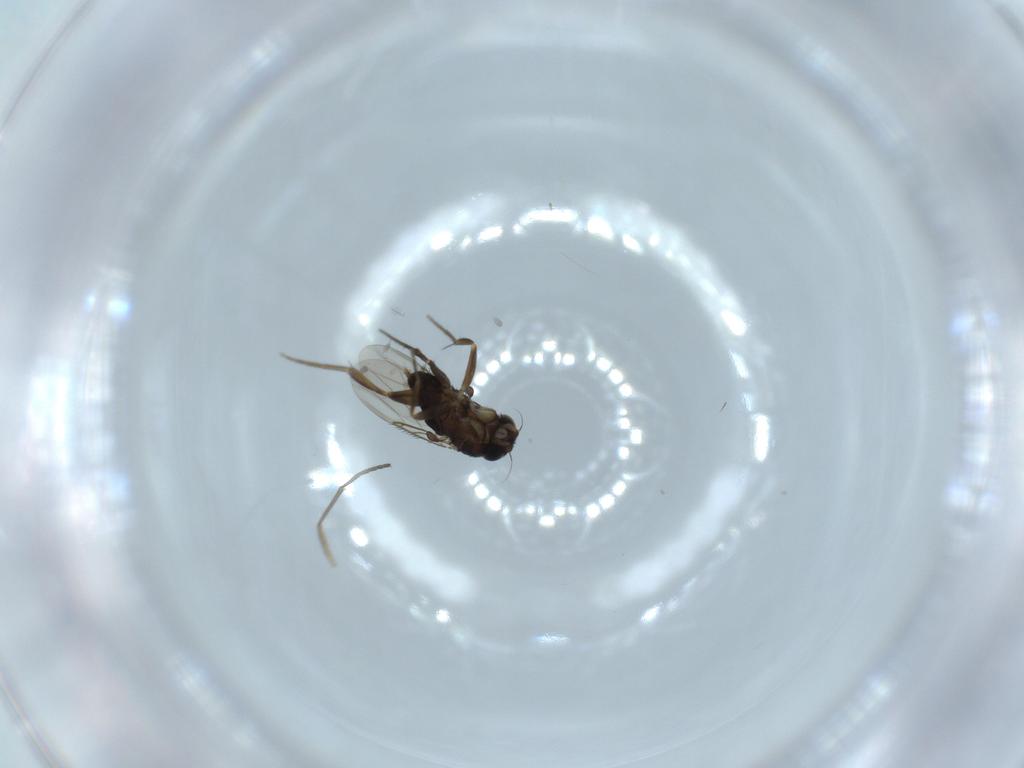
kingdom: Animalia
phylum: Arthropoda
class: Insecta
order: Diptera
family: Phoridae
